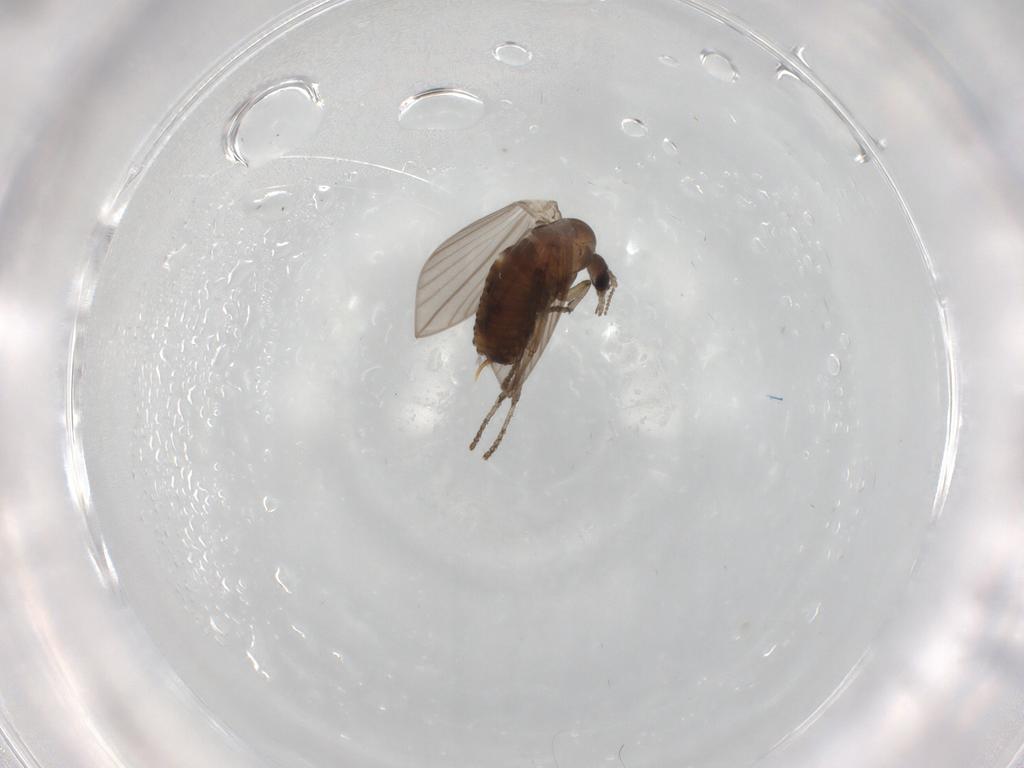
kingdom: Animalia
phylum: Arthropoda
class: Insecta
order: Diptera
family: Psychodidae
